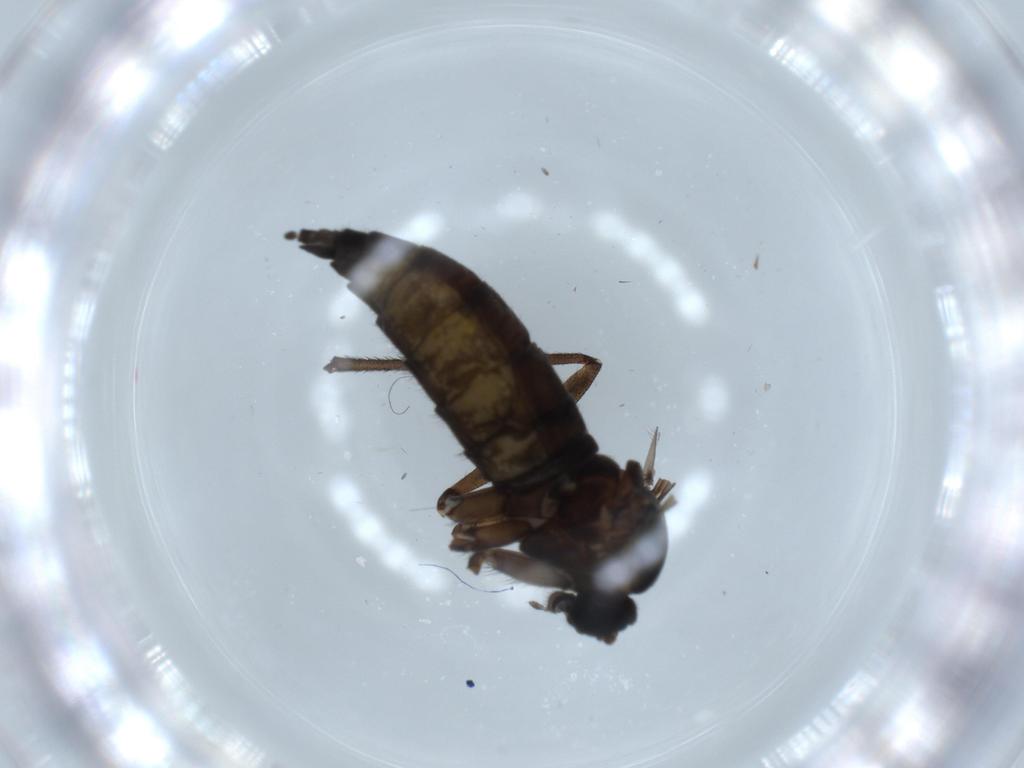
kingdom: Animalia
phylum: Arthropoda
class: Insecta
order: Diptera
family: Sciaridae
